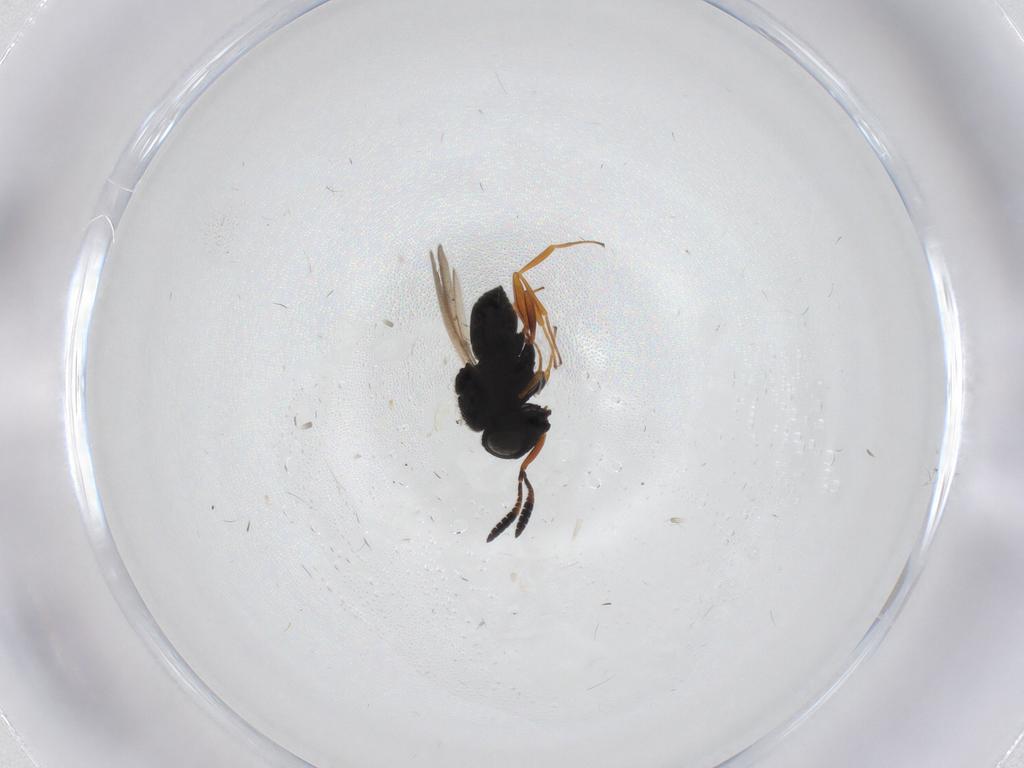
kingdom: Animalia
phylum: Arthropoda
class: Insecta
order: Hymenoptera
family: Scelionidae
